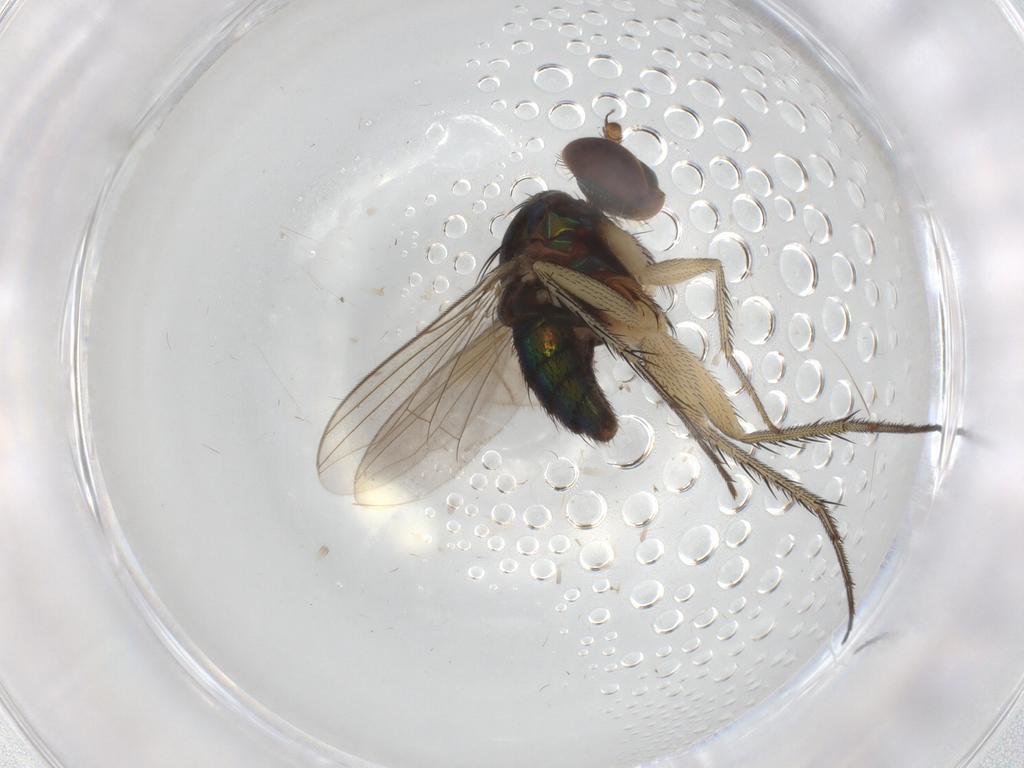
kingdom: Animalia
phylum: Arthropoda
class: Insecta
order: Diptera
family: Dolichopodidae
